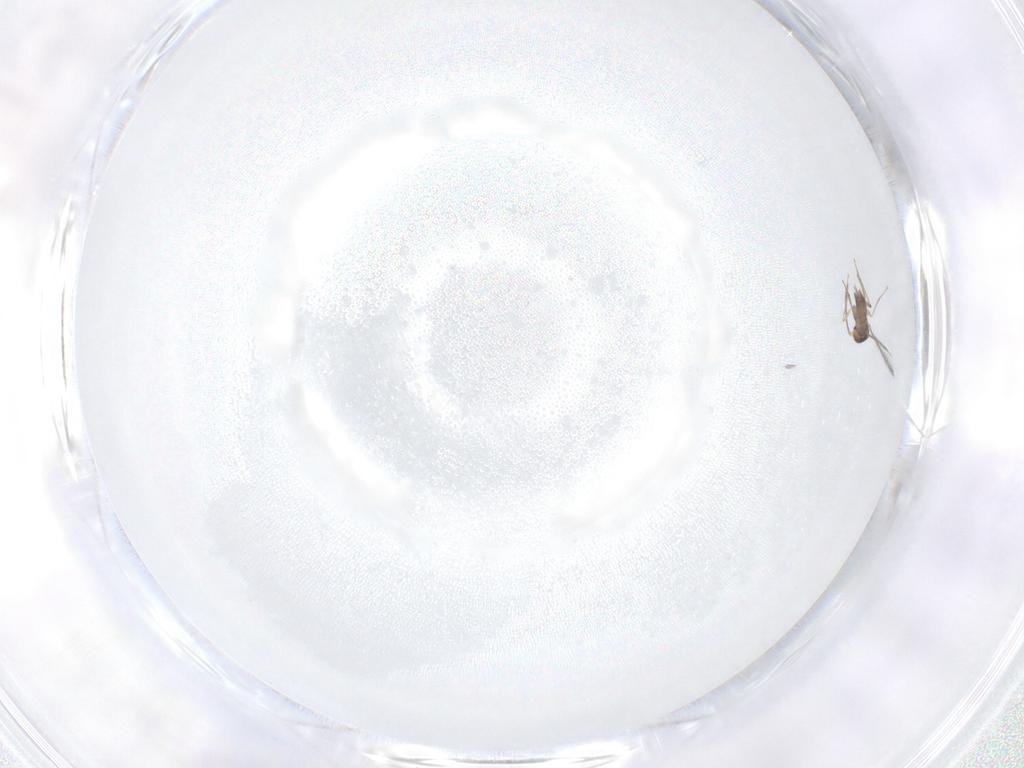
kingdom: Animalia
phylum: Arthropoda
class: Insecta
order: Hymenoptera
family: Mymaridae
